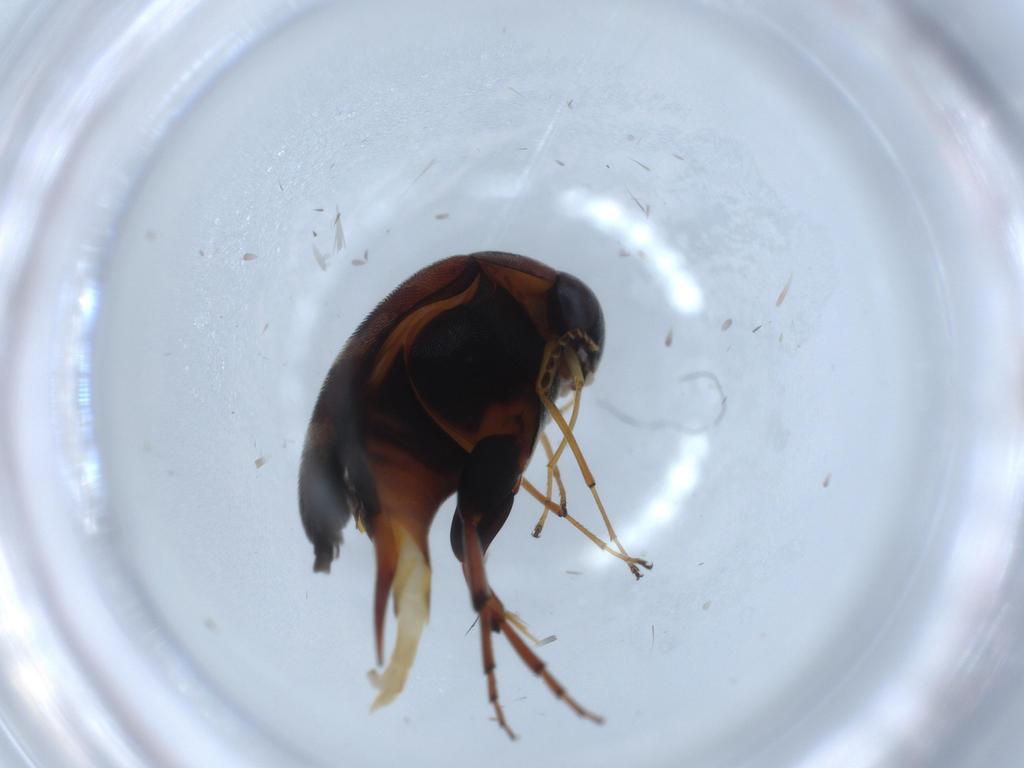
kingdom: Animalia
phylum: Arthropoda
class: Insecta
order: Coleoptera
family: Mordellidae
